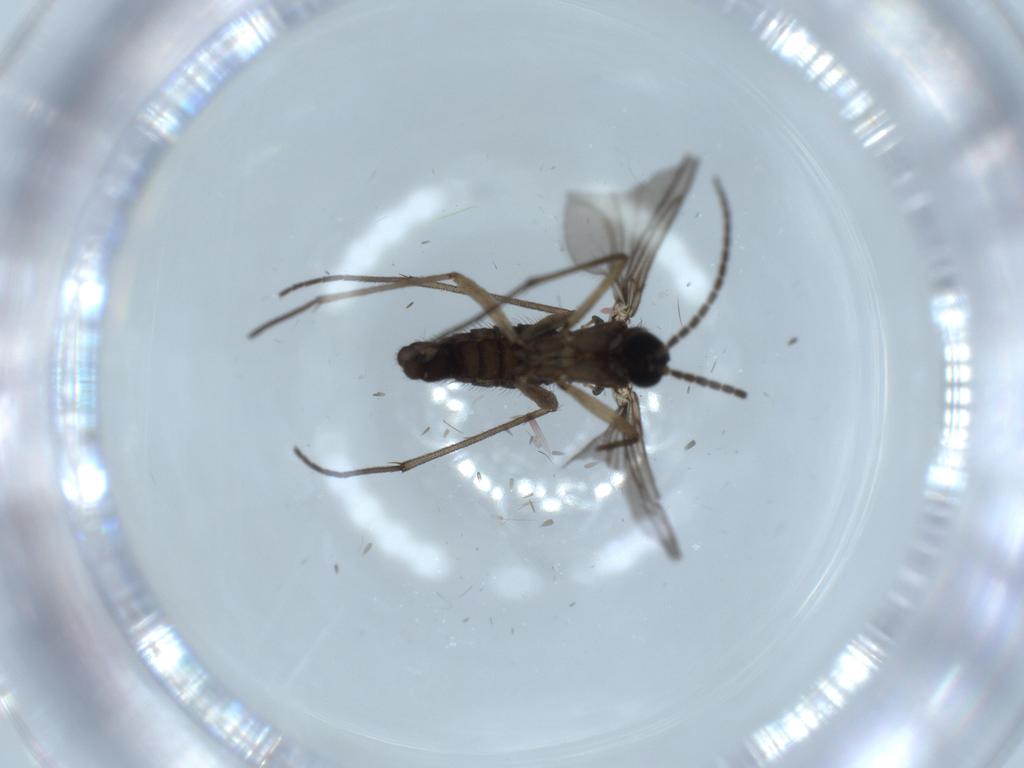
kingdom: Animalia
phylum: Arthropoda
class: Insecta
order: Diptera
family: Sciaridae
